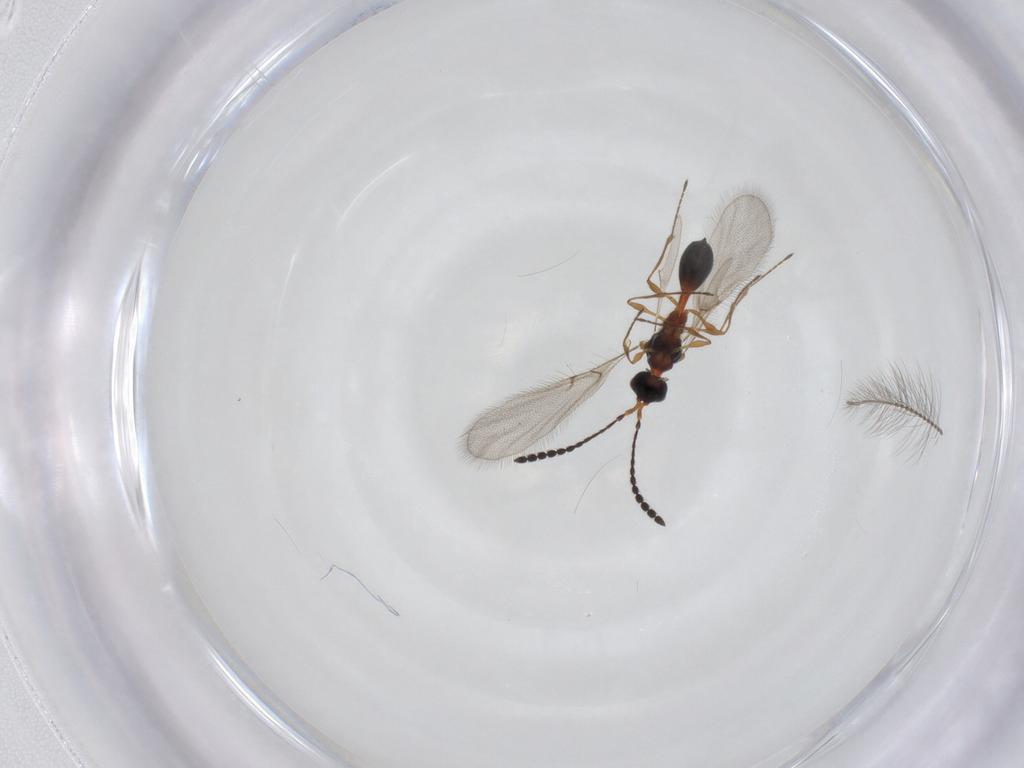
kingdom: Animalia
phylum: Arthropoda
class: Insecta
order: Hymenoptera
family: Diapriidae
